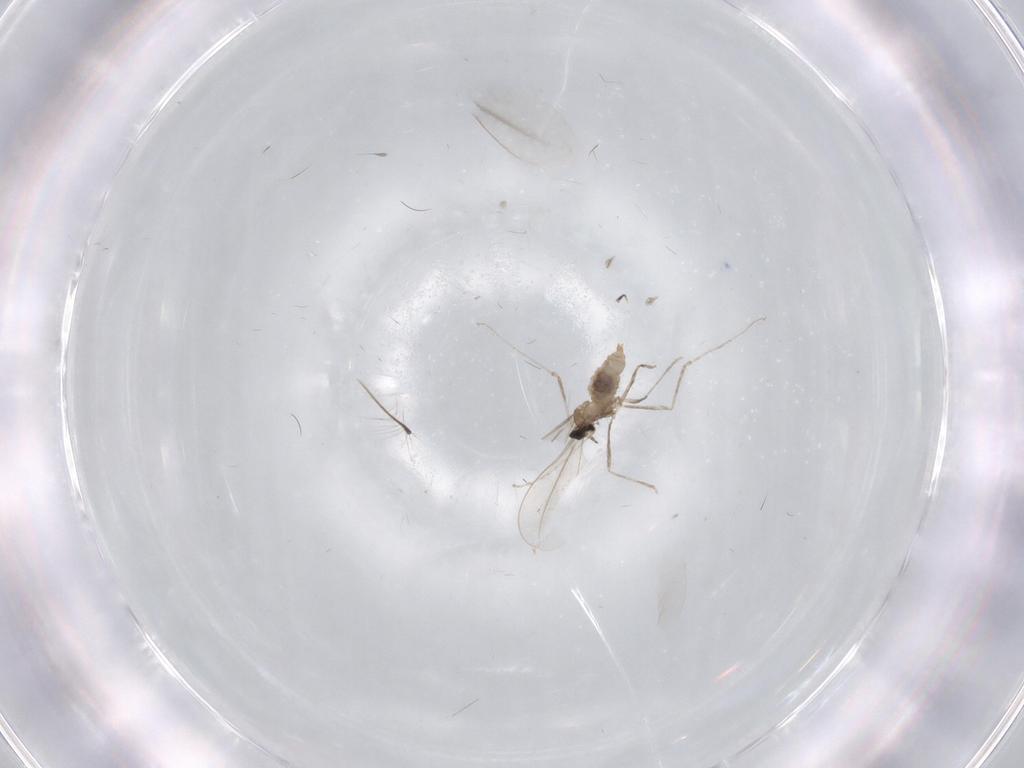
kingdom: Animalia
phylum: Arthropoda
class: Insecta
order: Diptera
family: Cecidomyiidae
